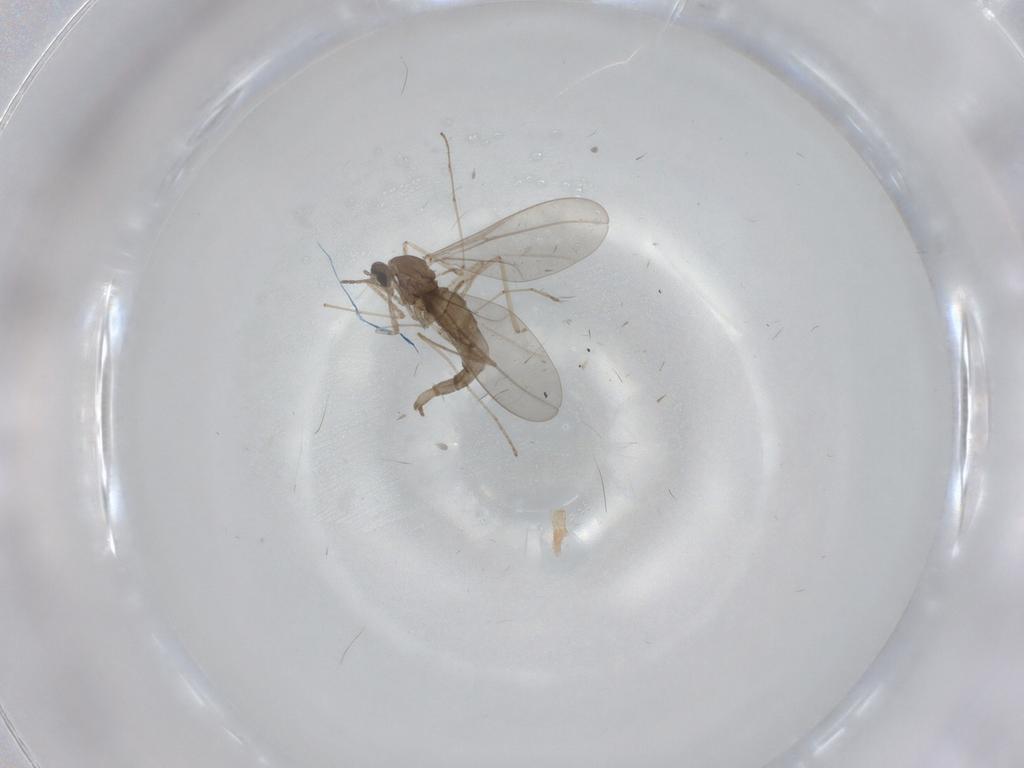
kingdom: Animalia
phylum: Arthropoda
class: Insecta
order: Diptera
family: Cecidomyiidae
